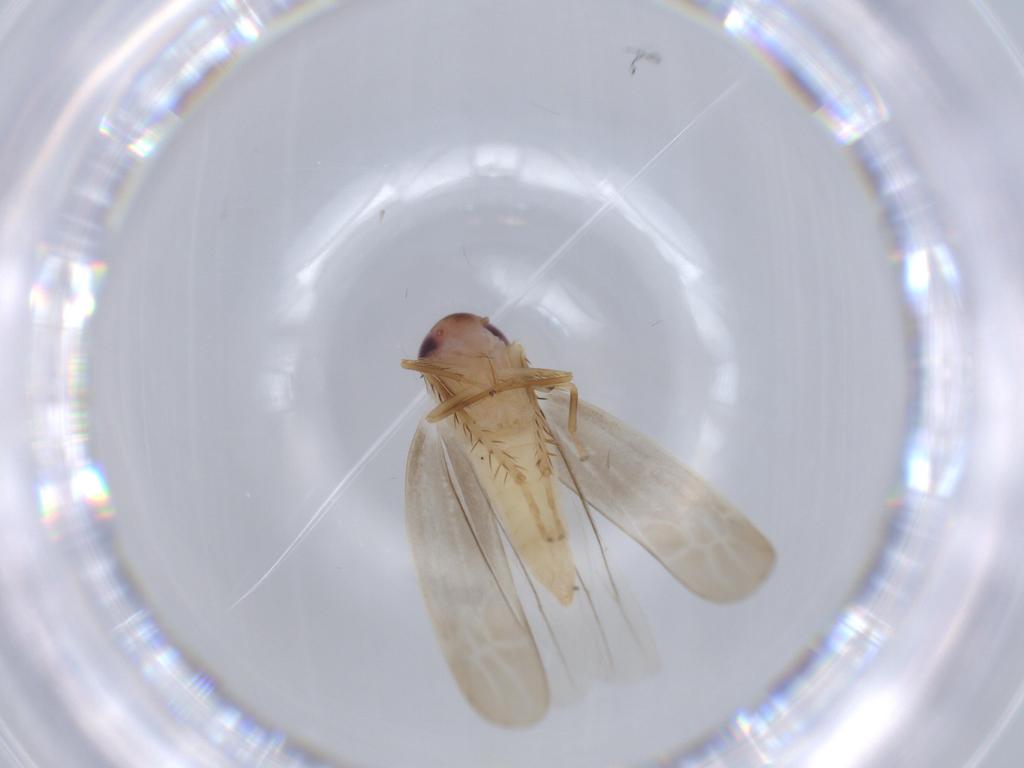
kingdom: Animalia
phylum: Arthropoda
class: Insecta
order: Hemiptera
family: Cicadellidae
